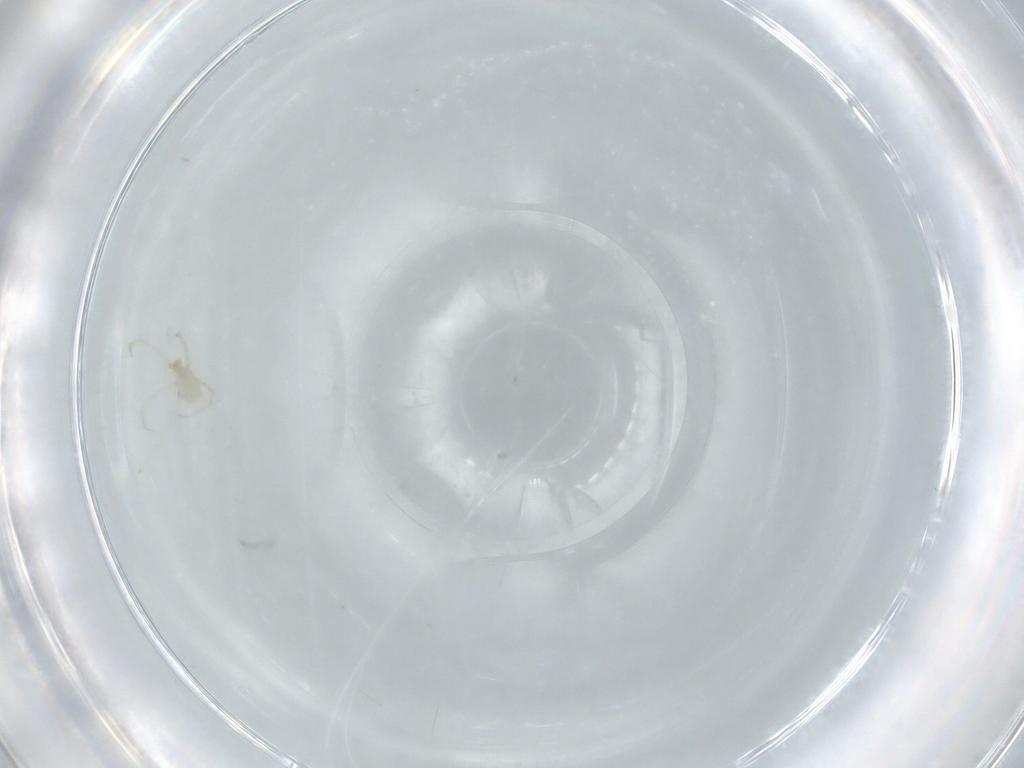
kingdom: Animalia
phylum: Arthropoda
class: Arachnida
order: Trombidiformes
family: Erythraeidae
